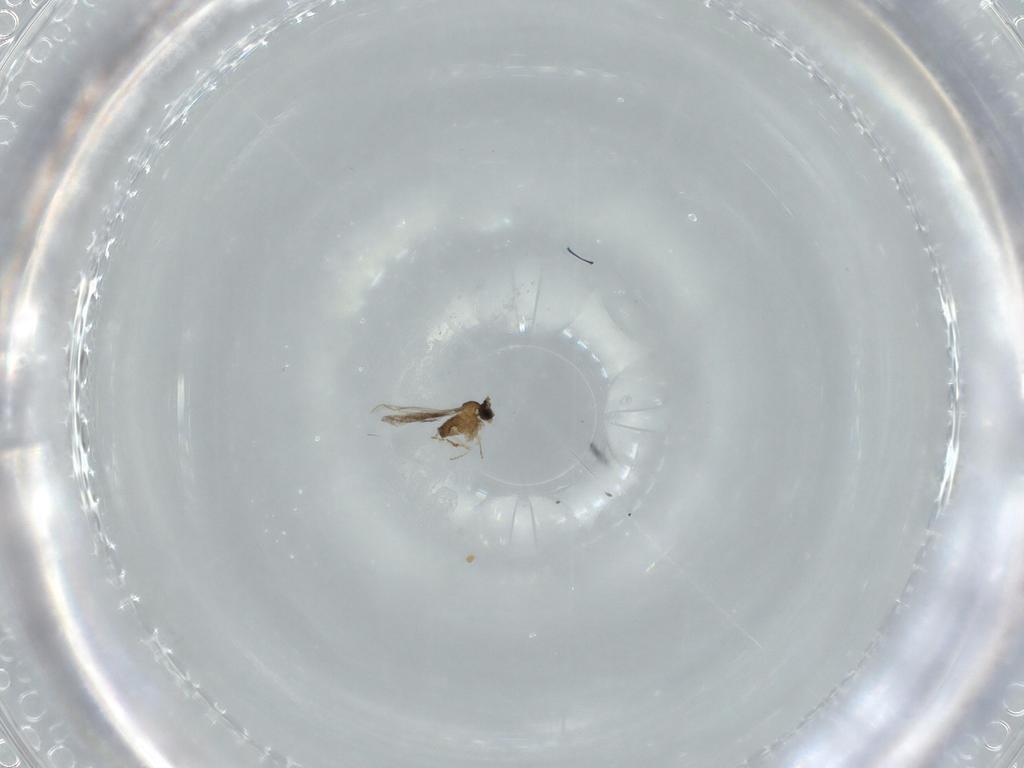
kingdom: Animalia
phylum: Arthropoda
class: Insecta
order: Diptera
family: Cecidomyiidae
